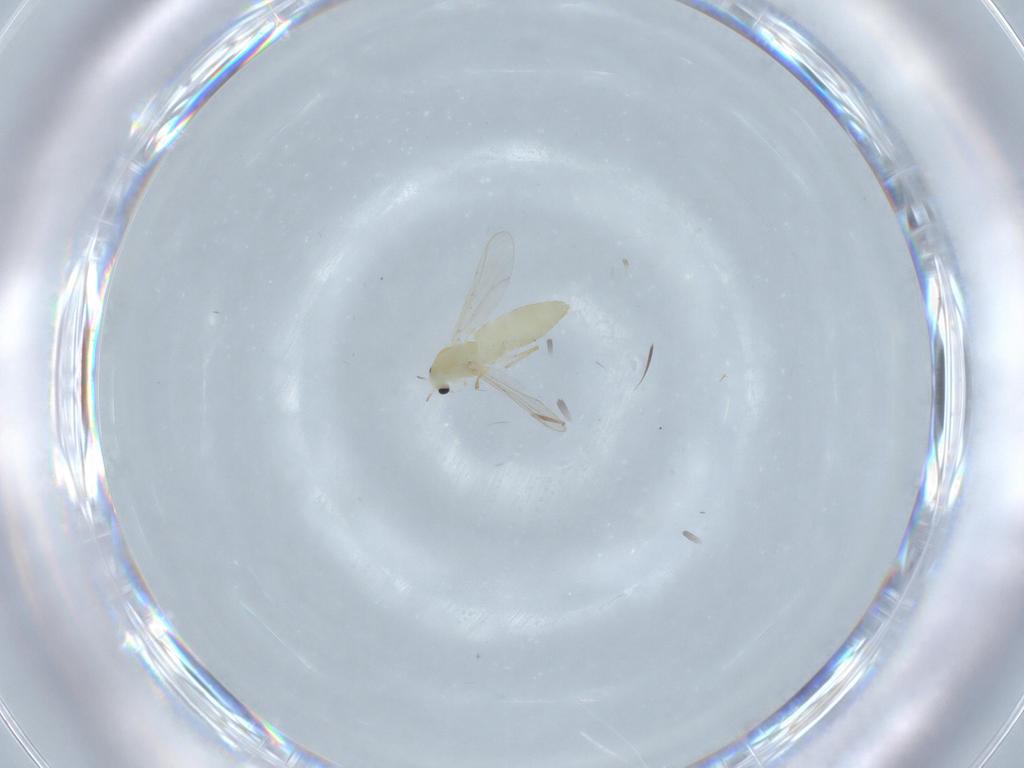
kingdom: Animalia
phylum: Arthropoda
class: Insecta
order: Diptera
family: Chironomidae
